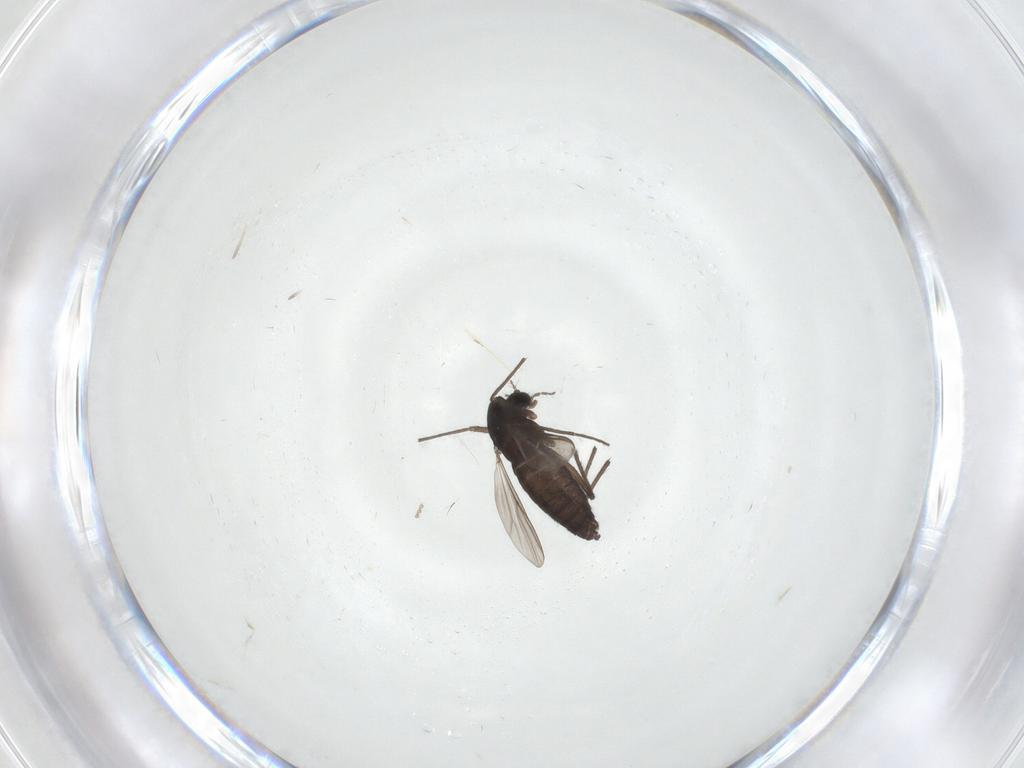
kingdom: Animalia
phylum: Arthropoda
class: Insecta
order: Diptera
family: Chironomidae
